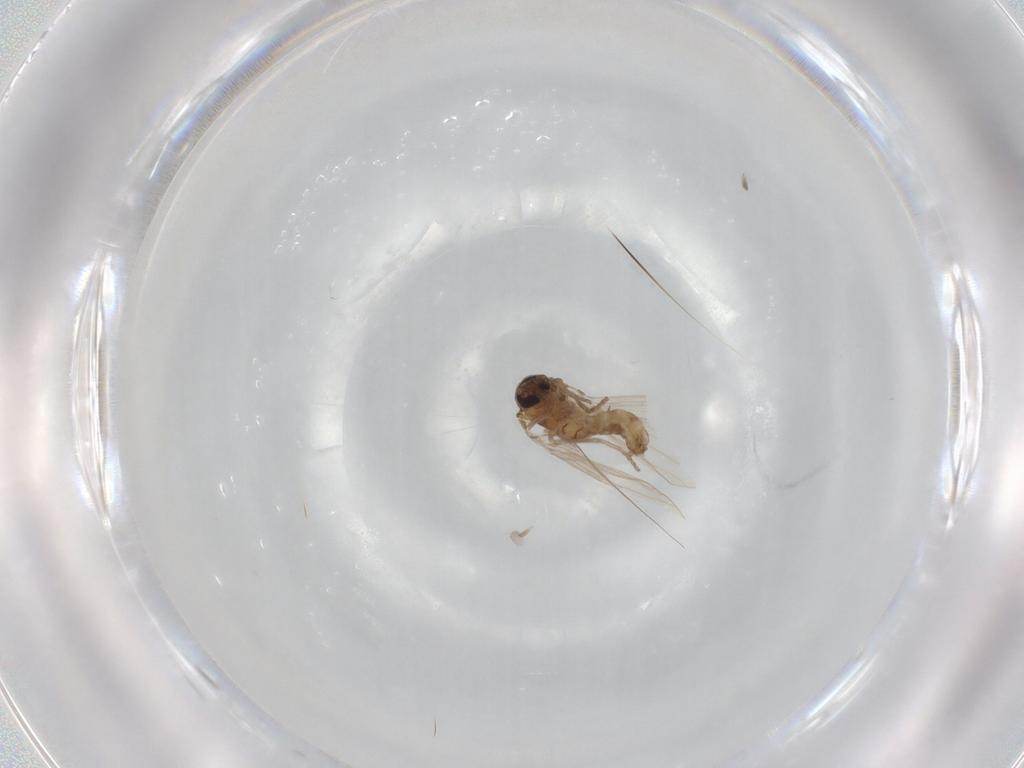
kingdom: Animalia
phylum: Arthropoda
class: Insecta
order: Diptera
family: Psychodidae
